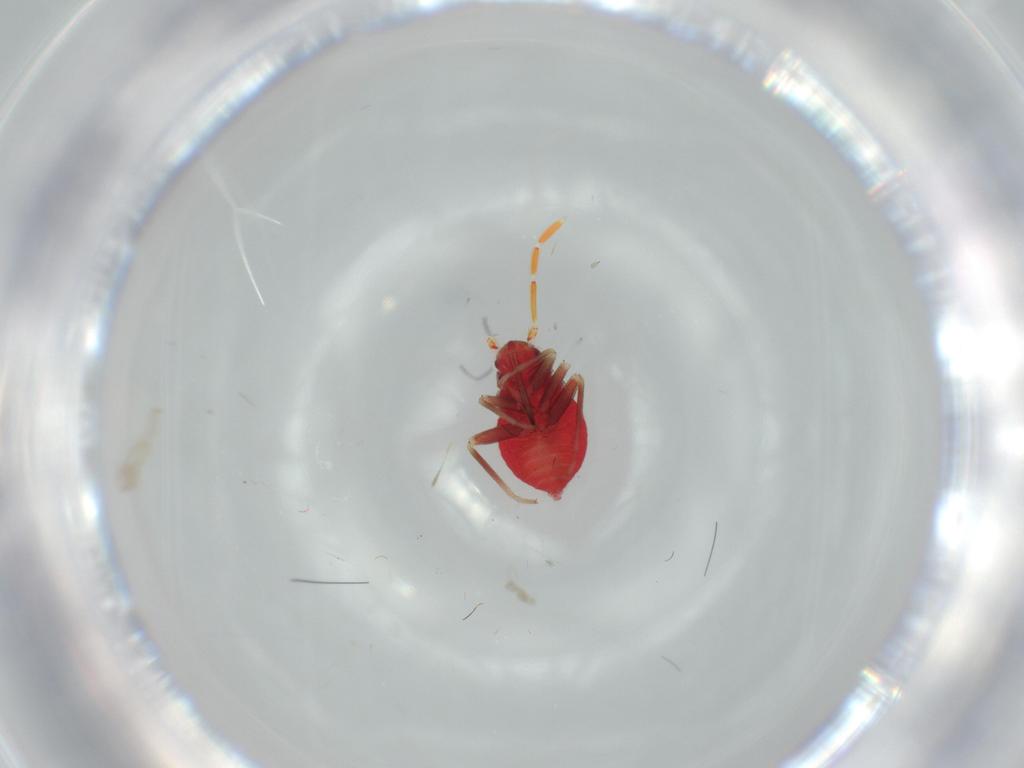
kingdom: Animalia
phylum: Arthropoda
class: Insecta
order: Hemiptera
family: Miridae
